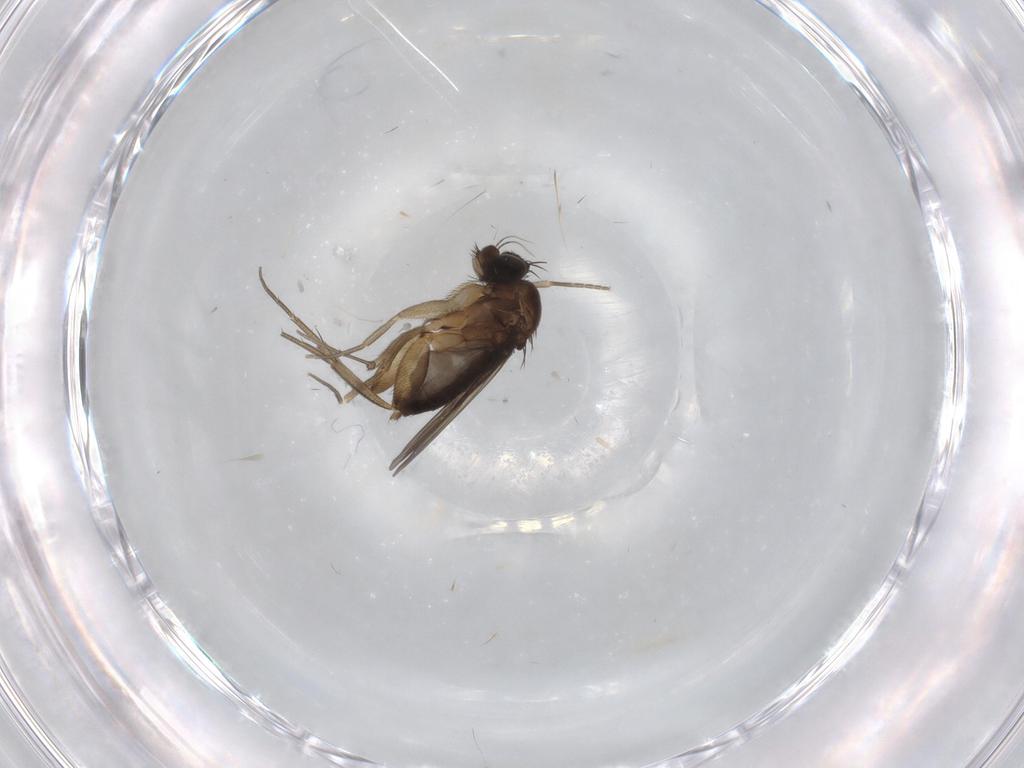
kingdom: Animalia
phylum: Arthropoda
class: Insecta
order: Diptera
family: Phoridae
